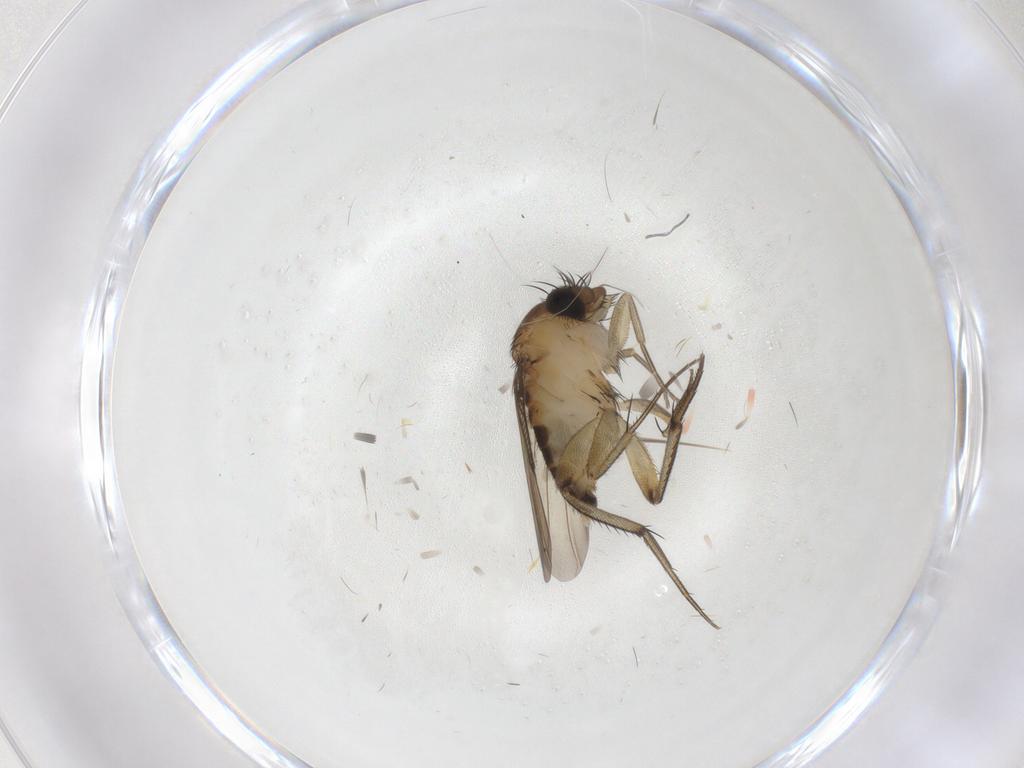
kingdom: Animalia
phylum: Arthropoda
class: Insecta
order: Diptera
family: Phoridae
